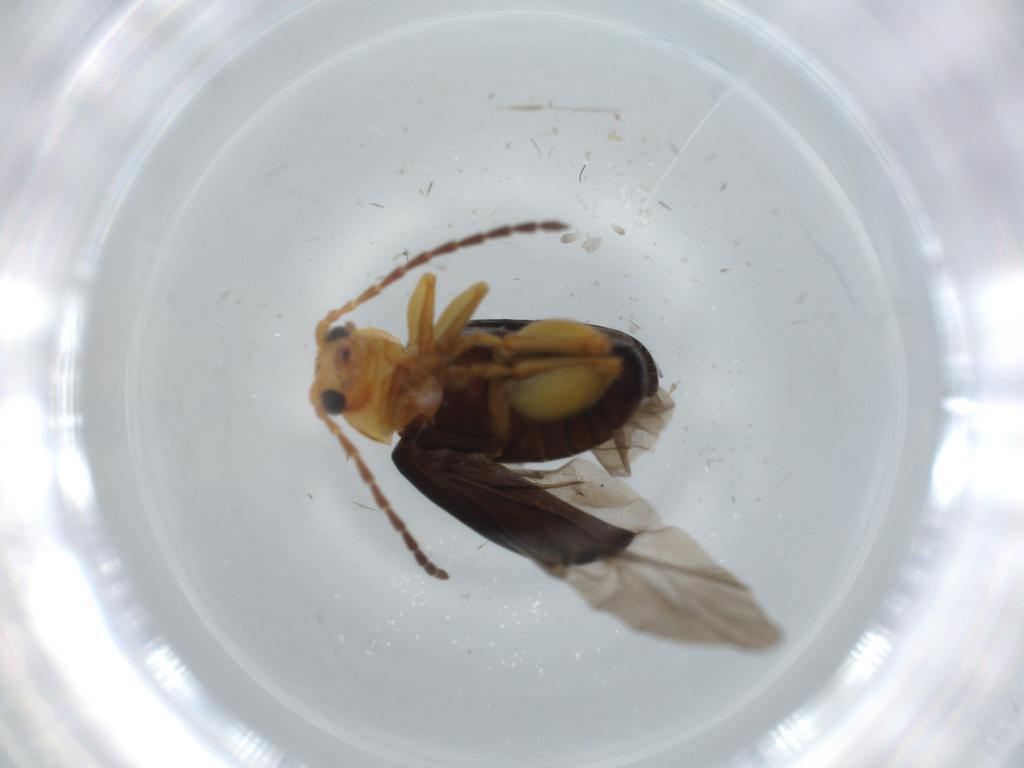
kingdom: Animalia
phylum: Arthropoda
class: Insecta
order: Coleoptera
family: Chrysomelidae
